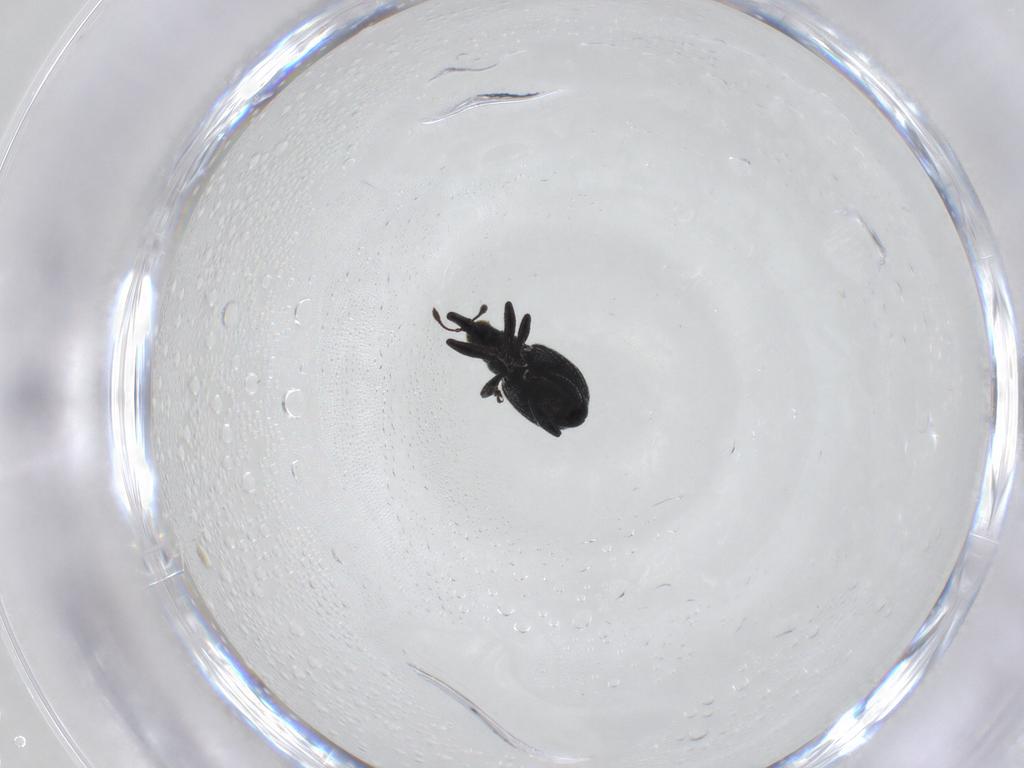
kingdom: Animalia
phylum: Arthropoda
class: Insecta
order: Coleoptera
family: Brentidae
